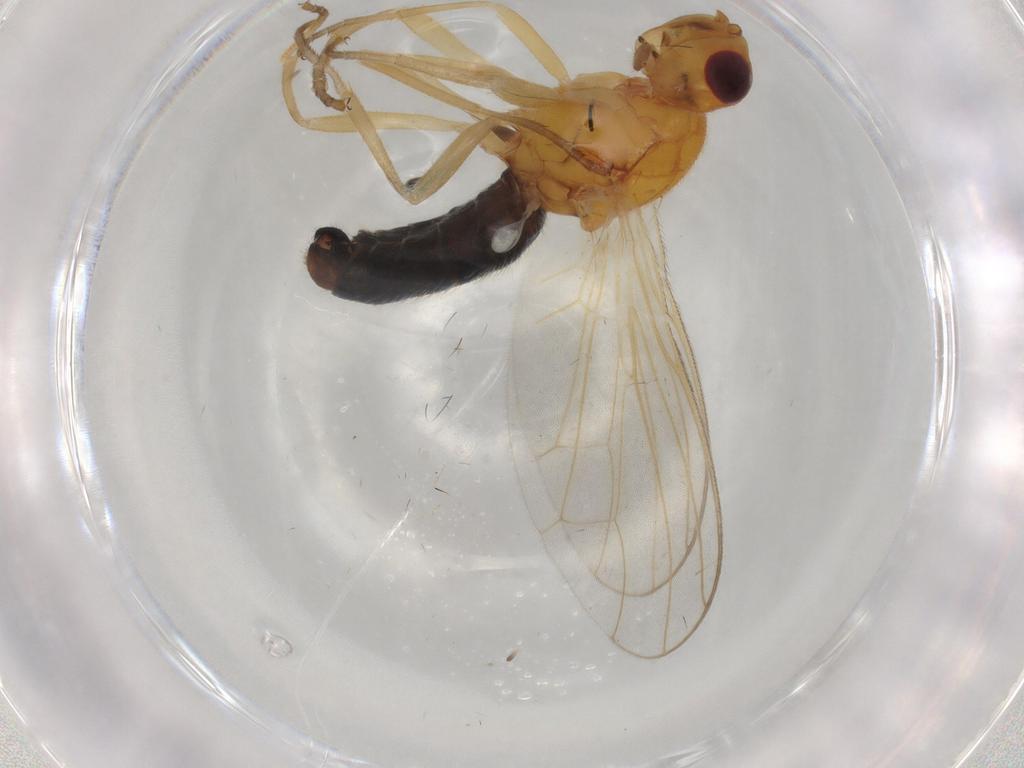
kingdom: Animalia
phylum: Arthropoda
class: Insecta
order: Diptera
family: Psilidae
